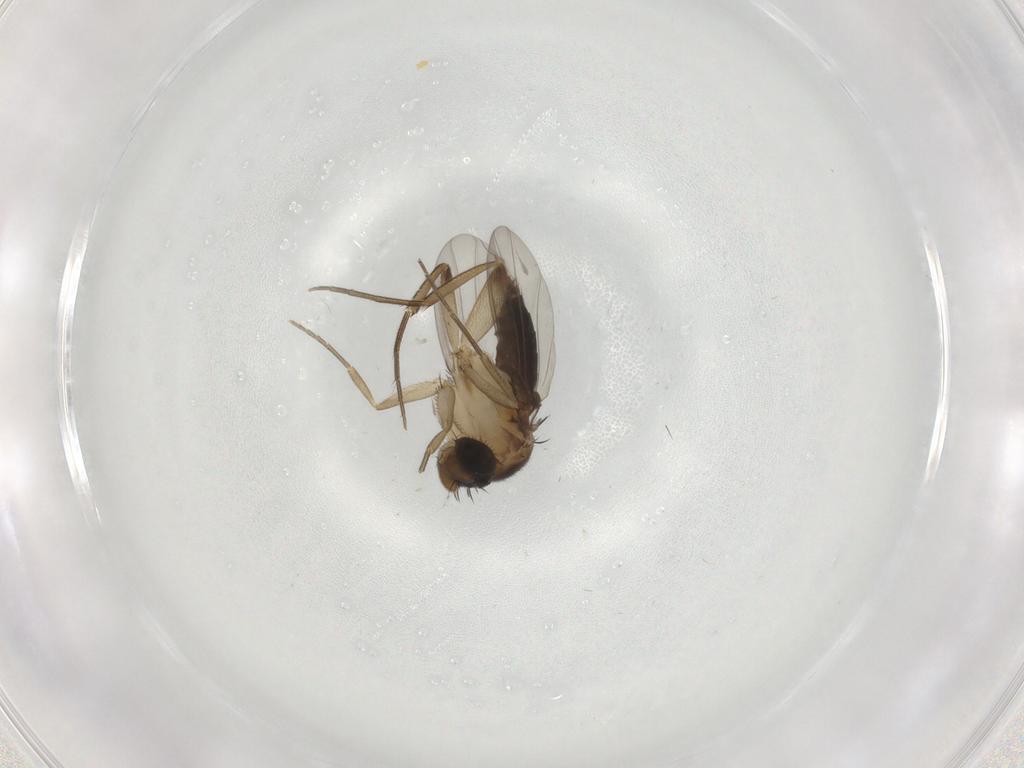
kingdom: Animalia
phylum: Arthropoda
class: Insecta
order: Diptera
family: Phoridae
